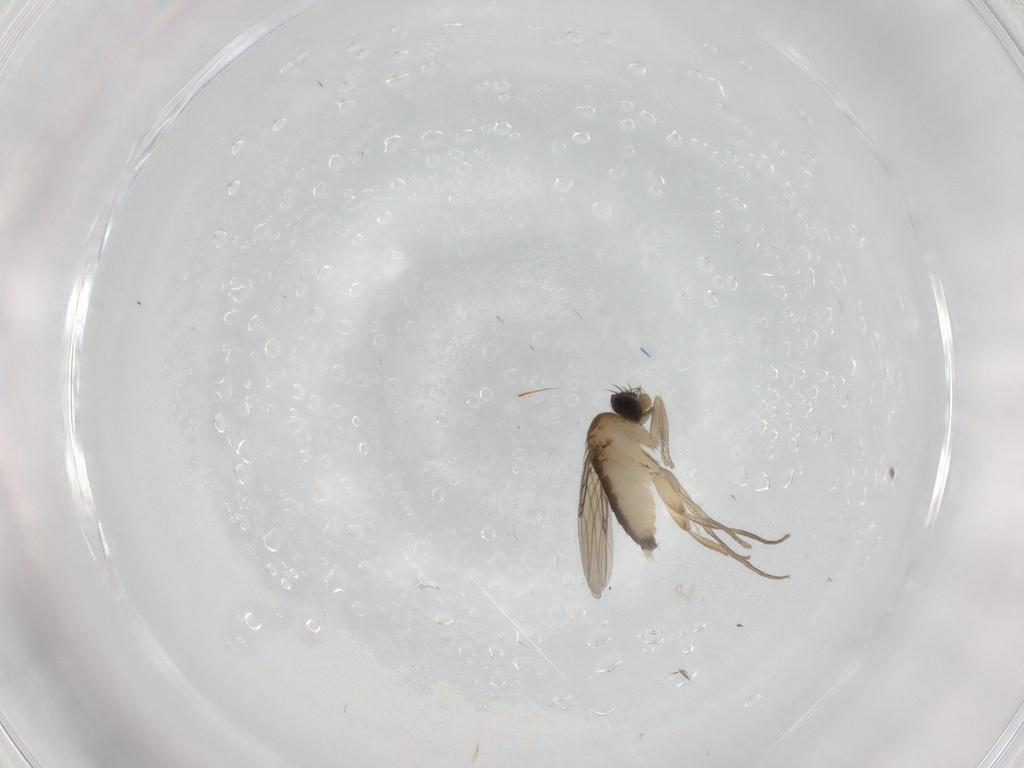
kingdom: Animalia
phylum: Arthropoda
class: Insecta
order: Diptera
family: Phoridae
